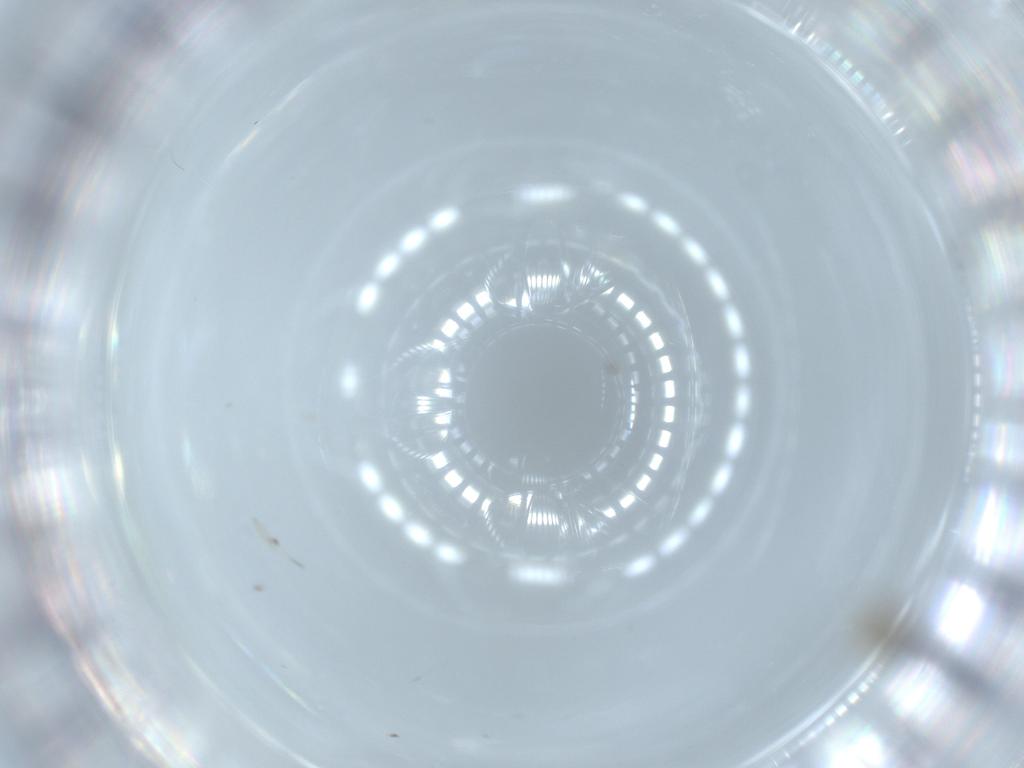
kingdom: Animalia
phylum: Arthropoda
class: Insecta
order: Hymenoptera
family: Scelionidae
